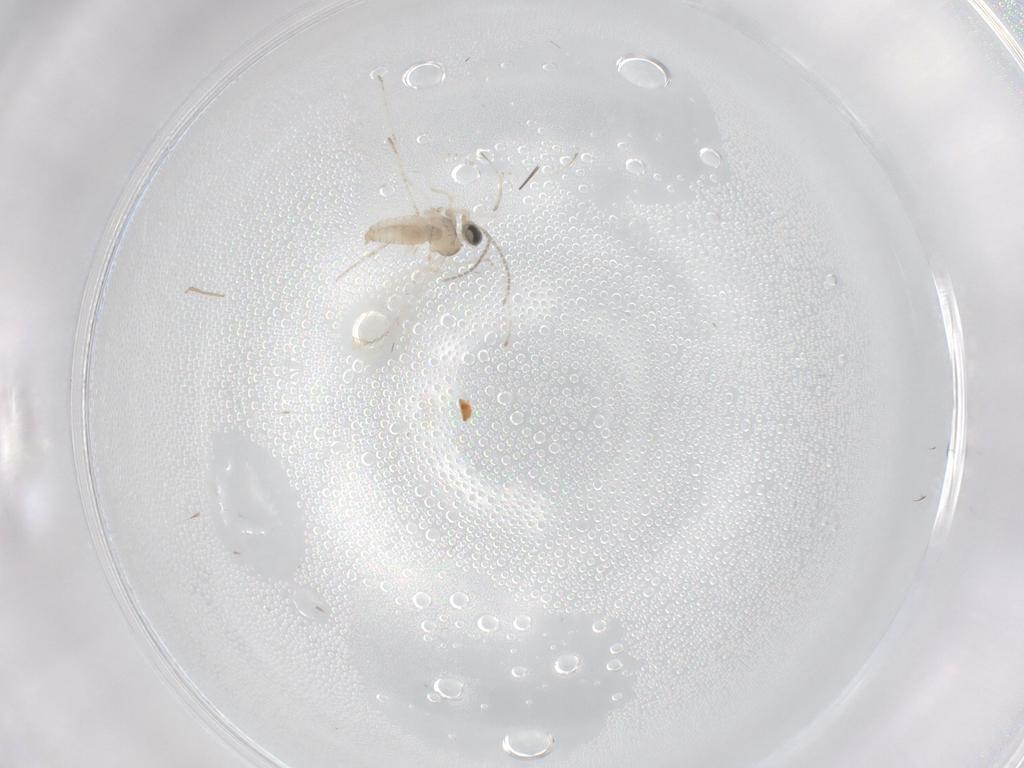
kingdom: Animalia
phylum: Arthropoda
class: Insecta
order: Diptera
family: Cecidomyiidae
